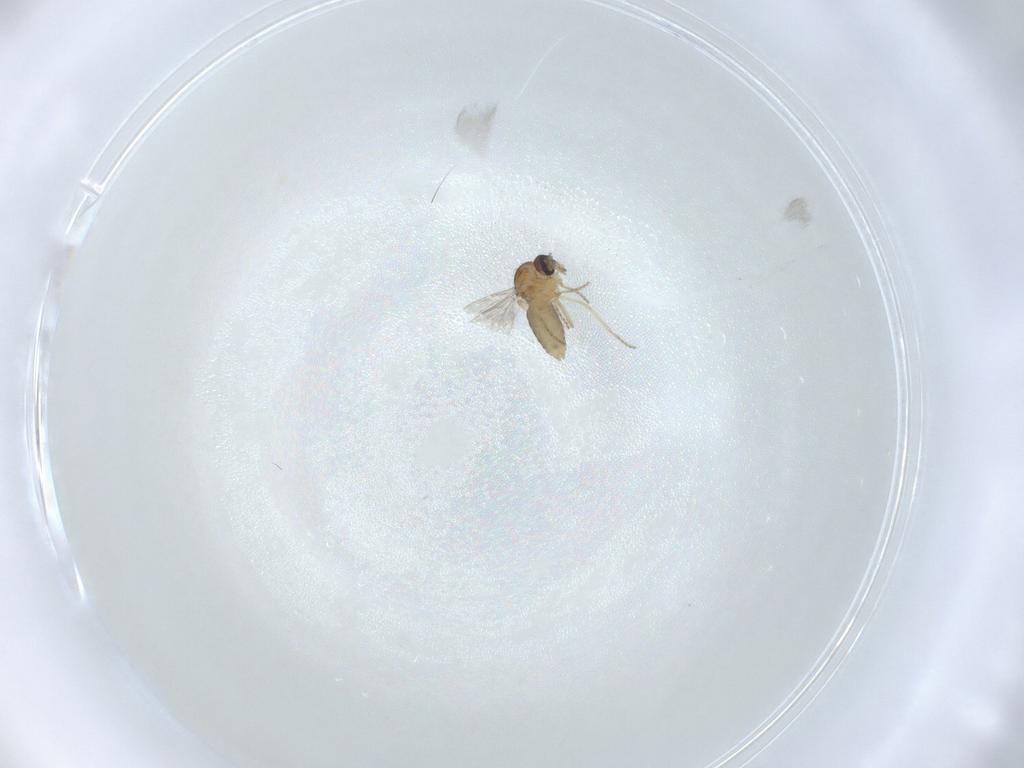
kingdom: Animalia
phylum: Arthropoda
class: Insecta
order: Diptera
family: Ceratopogonidae
